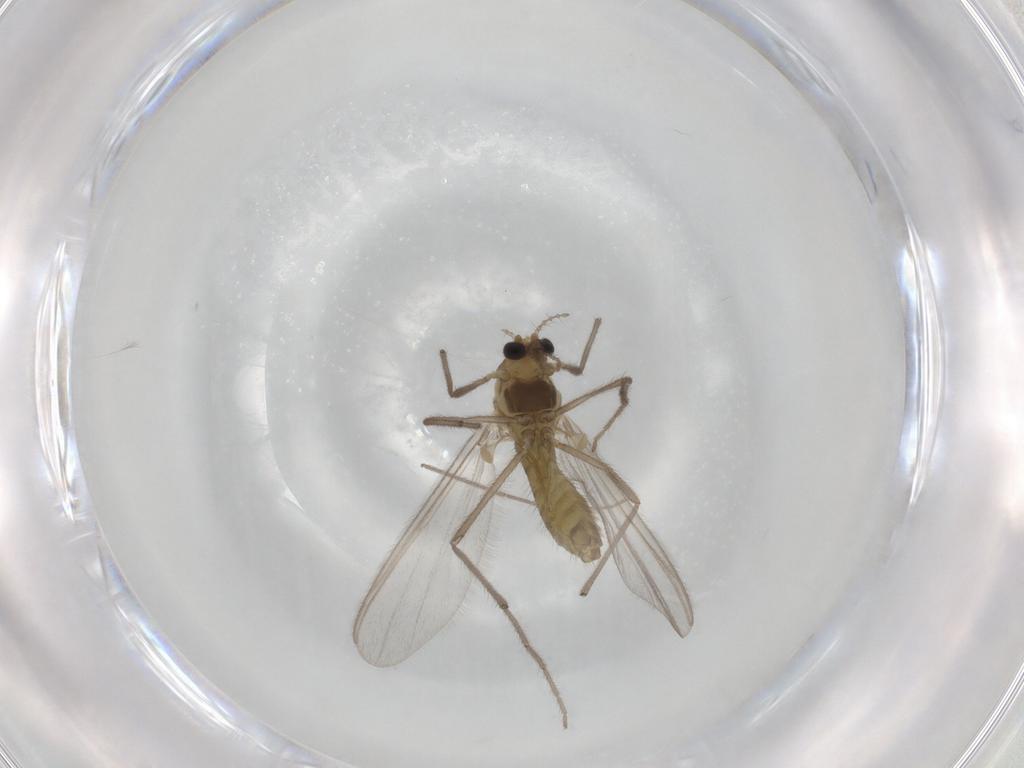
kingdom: Animalia
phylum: Arthropoda
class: Insecta
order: Diptera
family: Chironomidae
